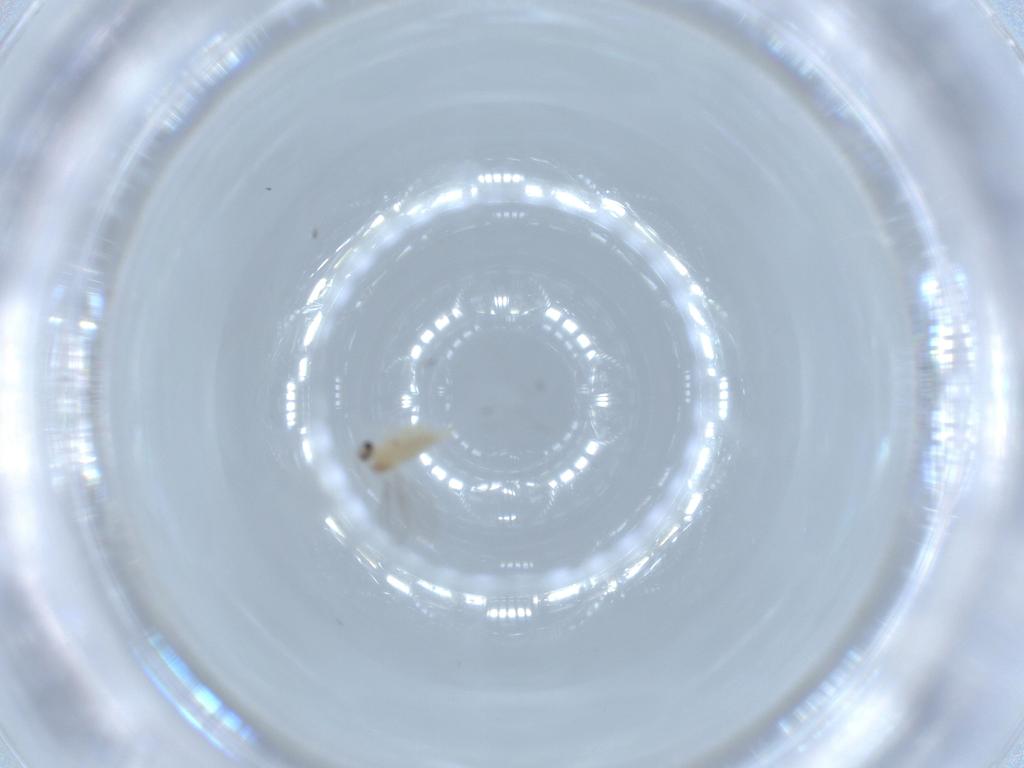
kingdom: Animalia
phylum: Arthropoda
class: Insecta
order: Diptera
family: Cecidomyiidae
